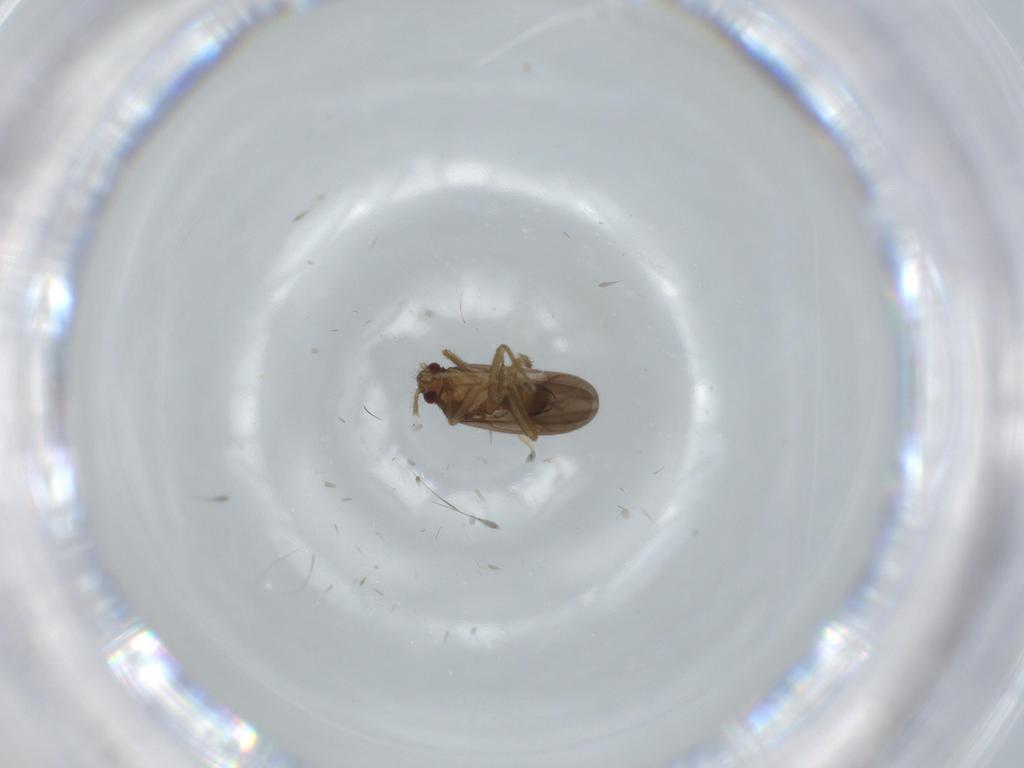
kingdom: Animalia
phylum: Arthropoda
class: Insecta
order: Hemiptera
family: Ceratocombidae
